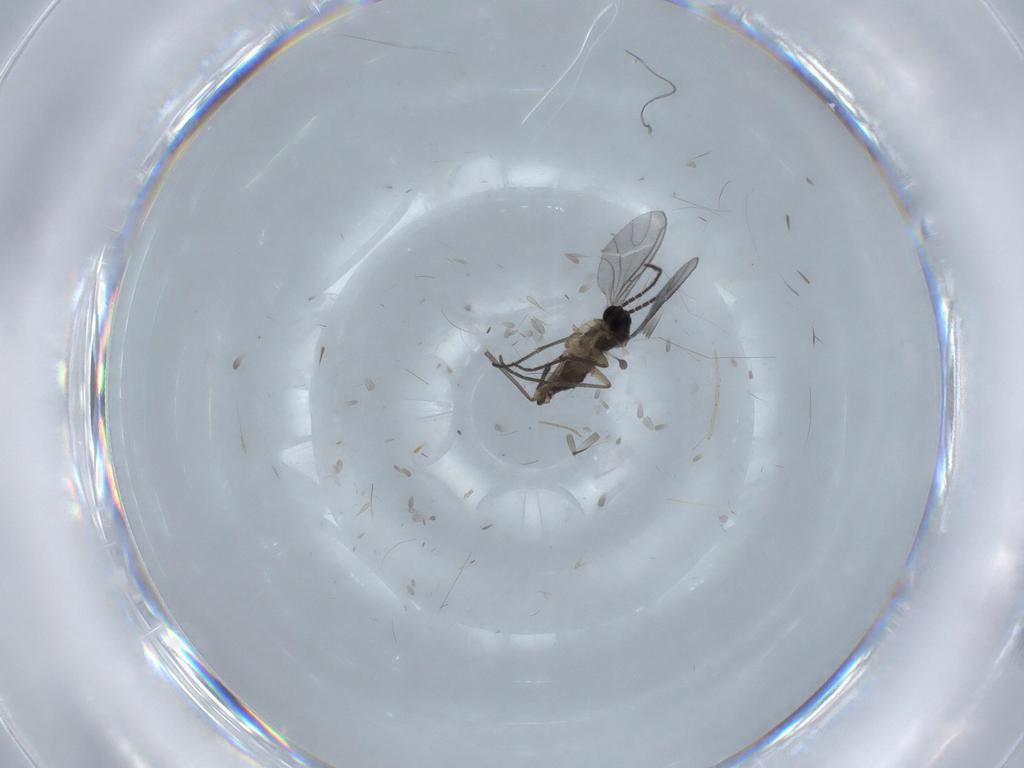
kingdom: Animalia
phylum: Arthropoda
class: Insecta
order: Diptera
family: Sciaridae
